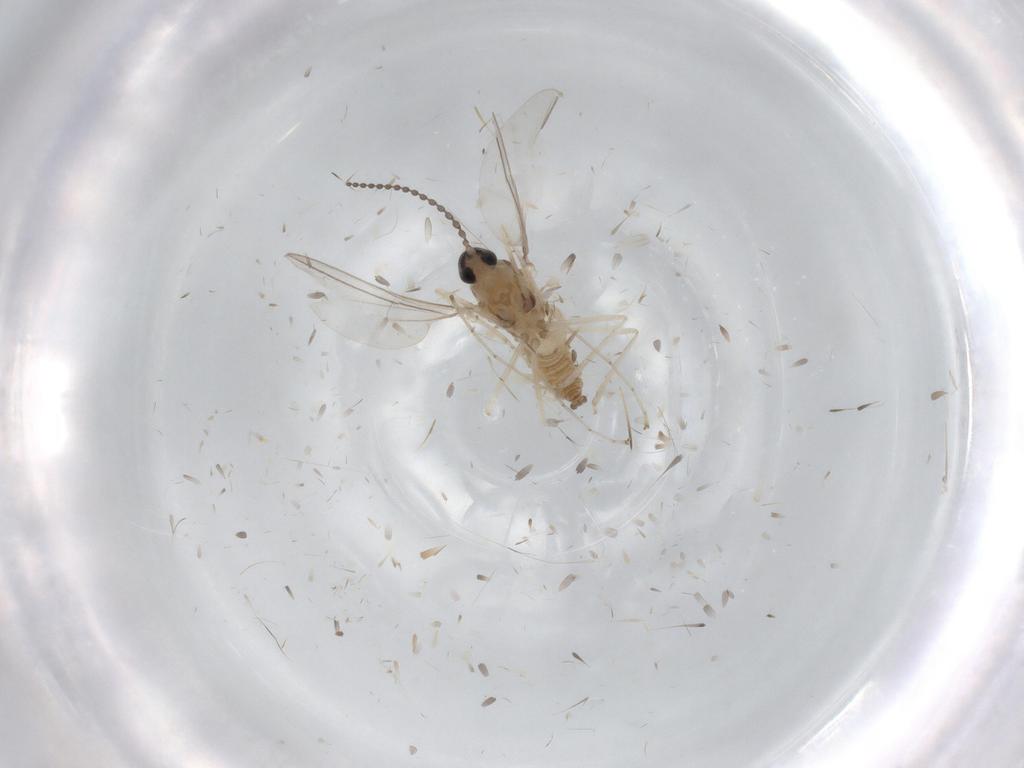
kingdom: Animalia
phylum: Arthropoda
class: Insecta
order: Diptera
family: Cecidomyiidae
